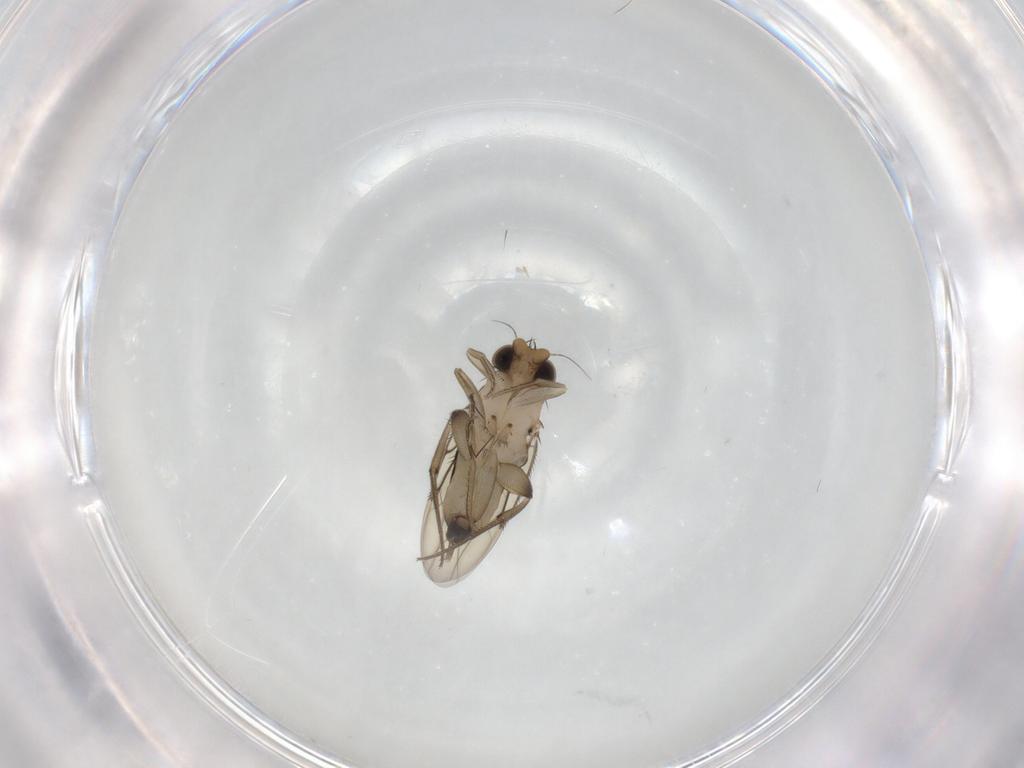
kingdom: Animalia
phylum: Arthropoda
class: Insecta
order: Diptera
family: Phoridae
